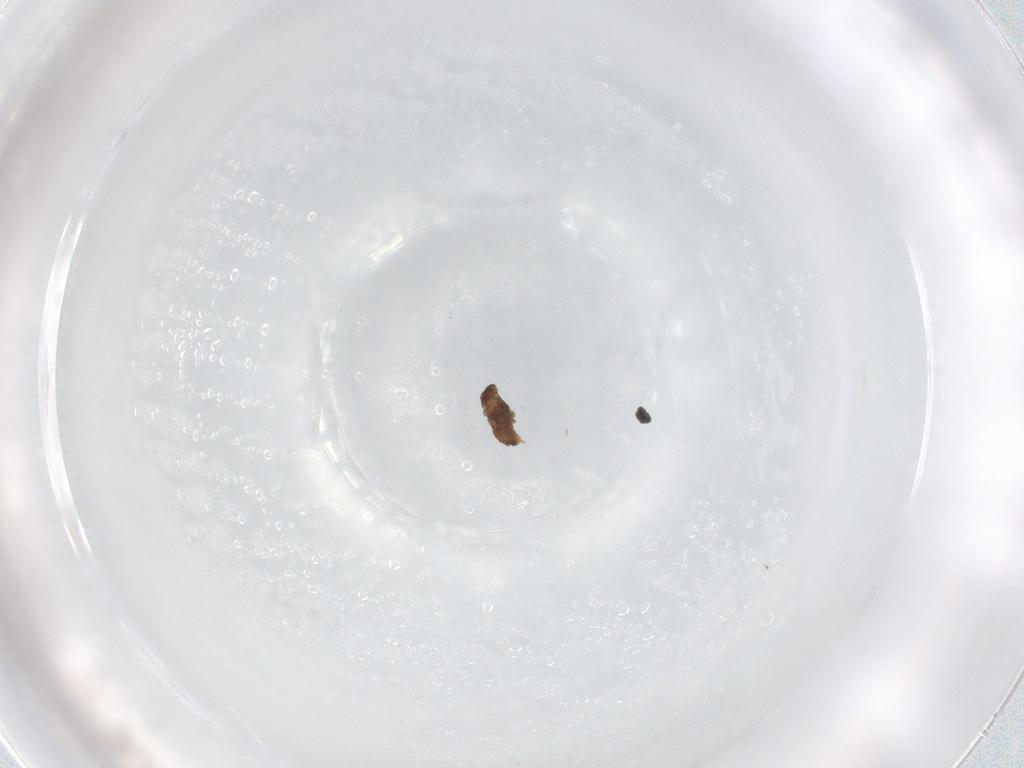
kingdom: Animalia
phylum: Arthropoda
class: Insecta
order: Diptera
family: Cecidomyiidae
